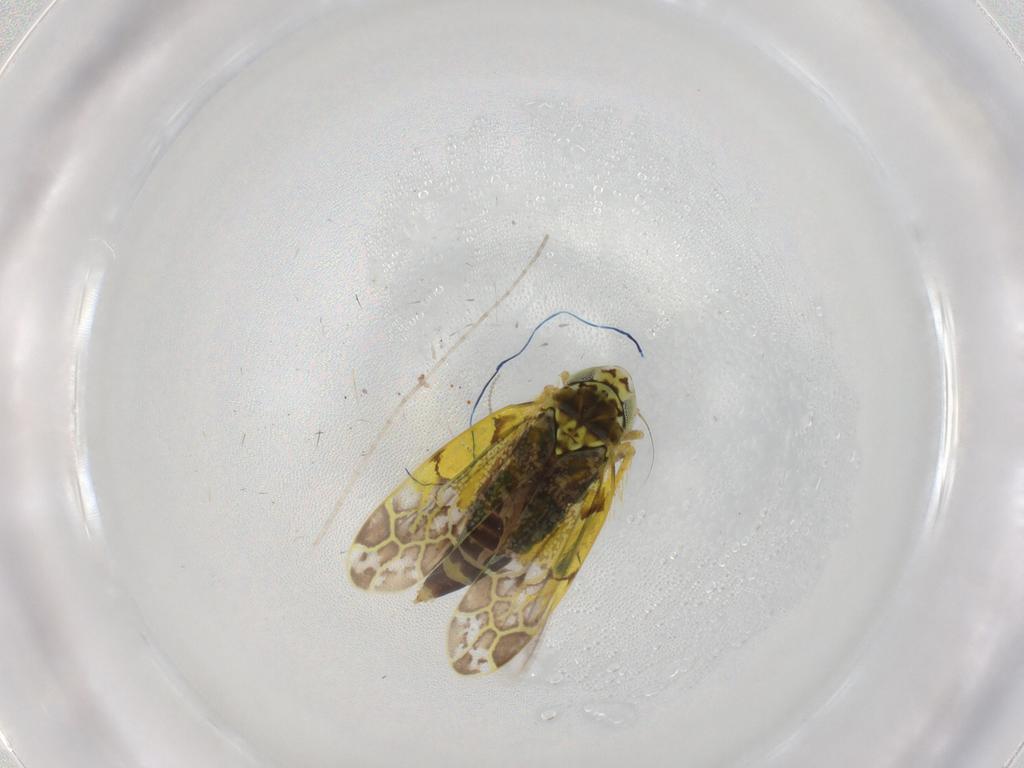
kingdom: Animalia
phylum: Arthropoda
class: Insecta
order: Hemiptera
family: Cicadellidae
